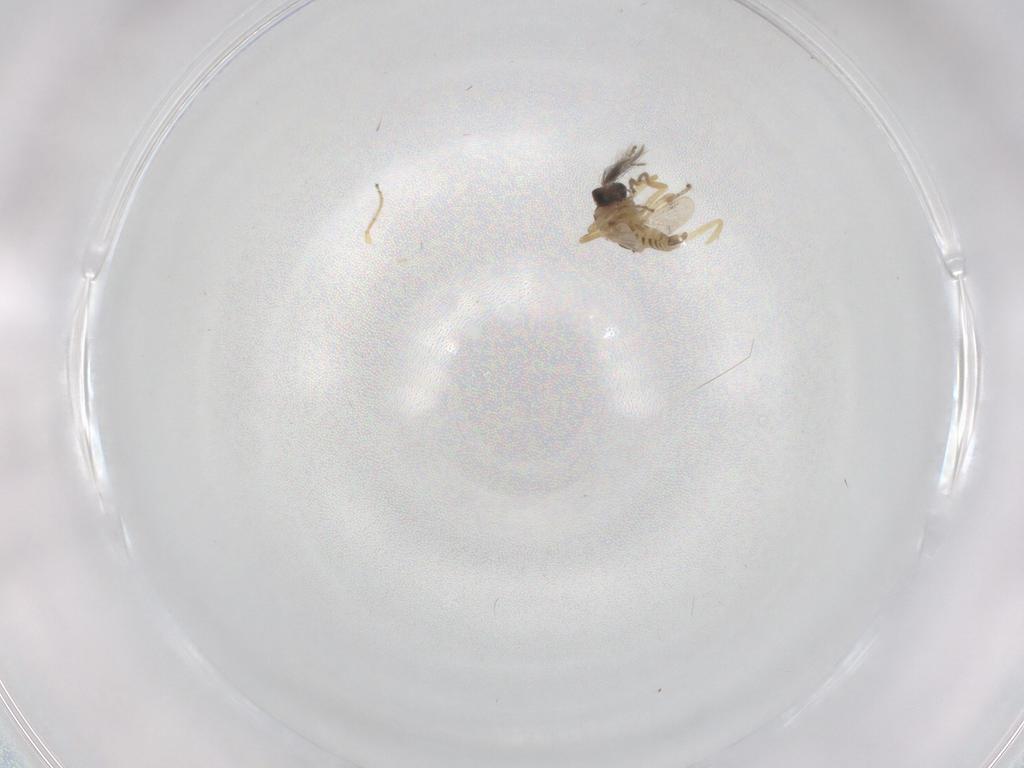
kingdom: Animalia
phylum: Arthropoda
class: Insecta
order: Diptera
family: Ceratopogonidae
